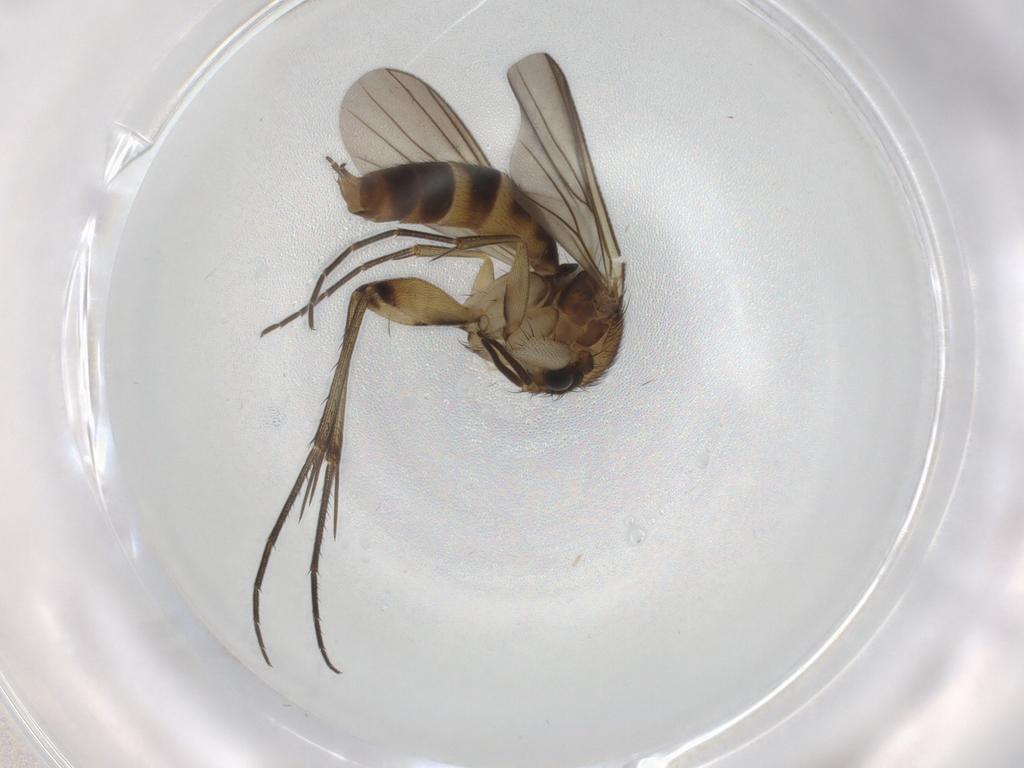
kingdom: Animalia
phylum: Arthropoda
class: Insecta
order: Diptera
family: Mycetophilidae
